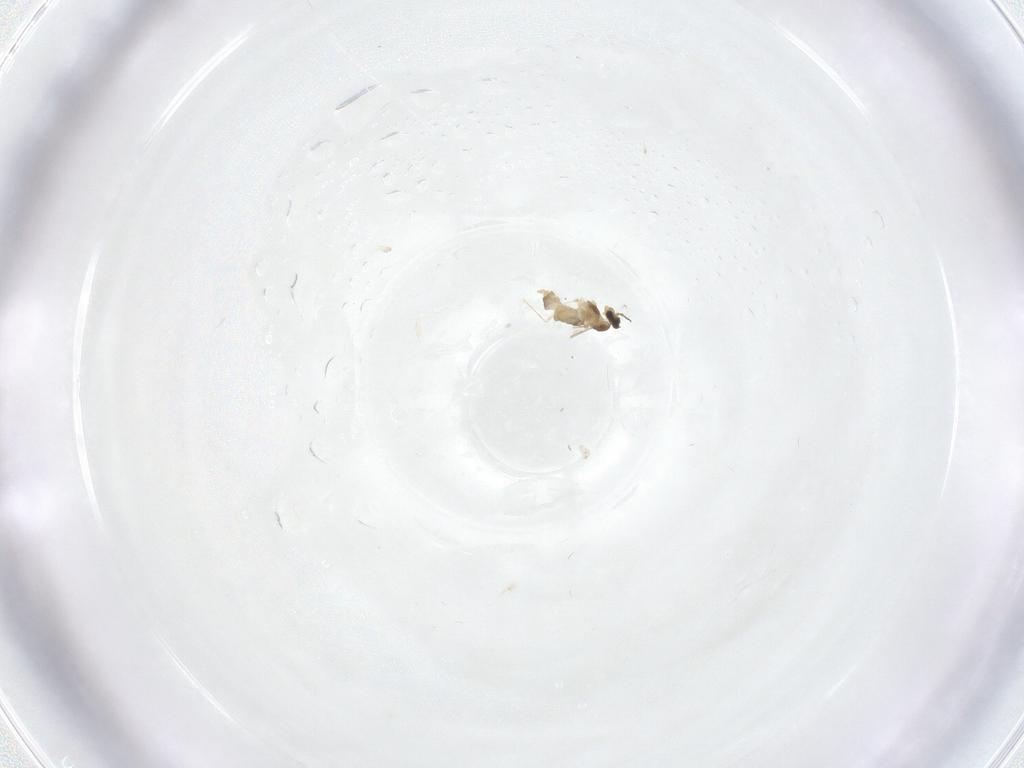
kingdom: Animalia
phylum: Arthropoda
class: Insecta
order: Diptera
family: Cecidomyiidae
